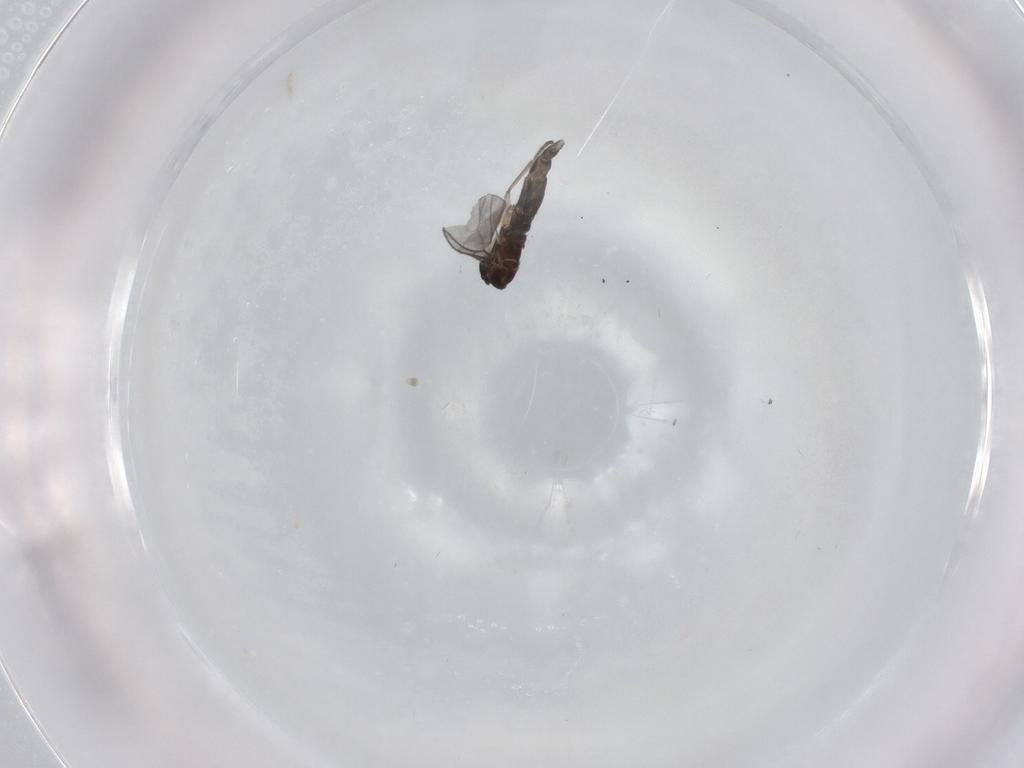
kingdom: Animalia
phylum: Arthropoda
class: Insecta
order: Diptera
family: Sciaridae
